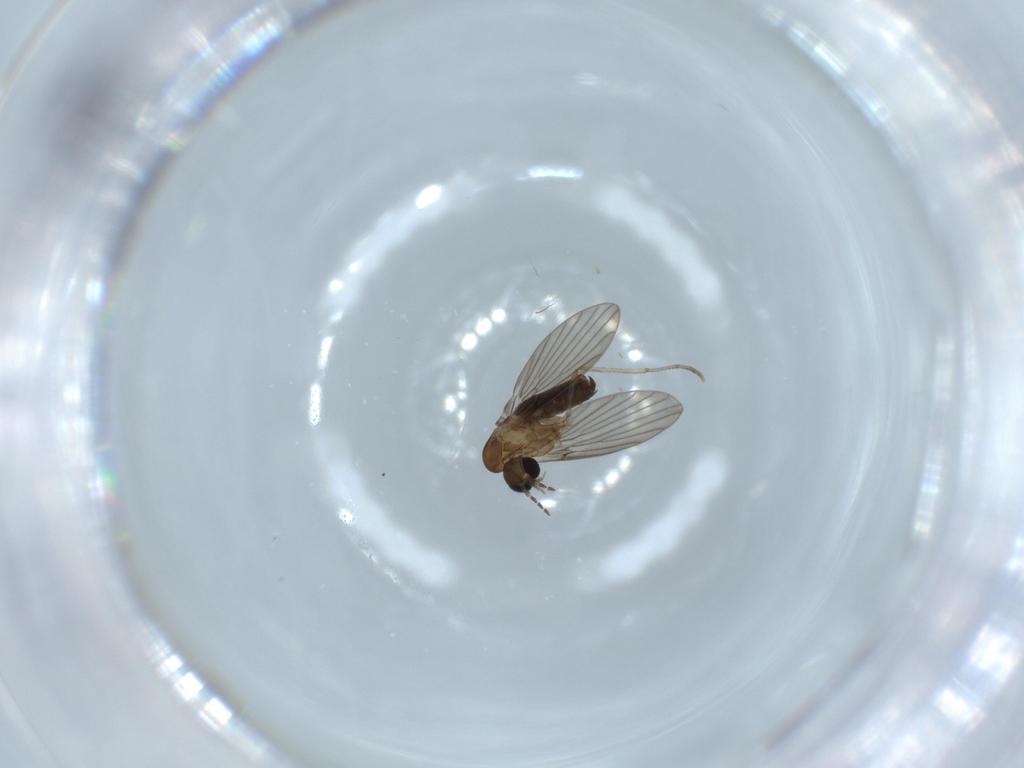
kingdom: Animalia
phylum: Arthropoda
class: Insecta
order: Diptera
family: Psychodidae
